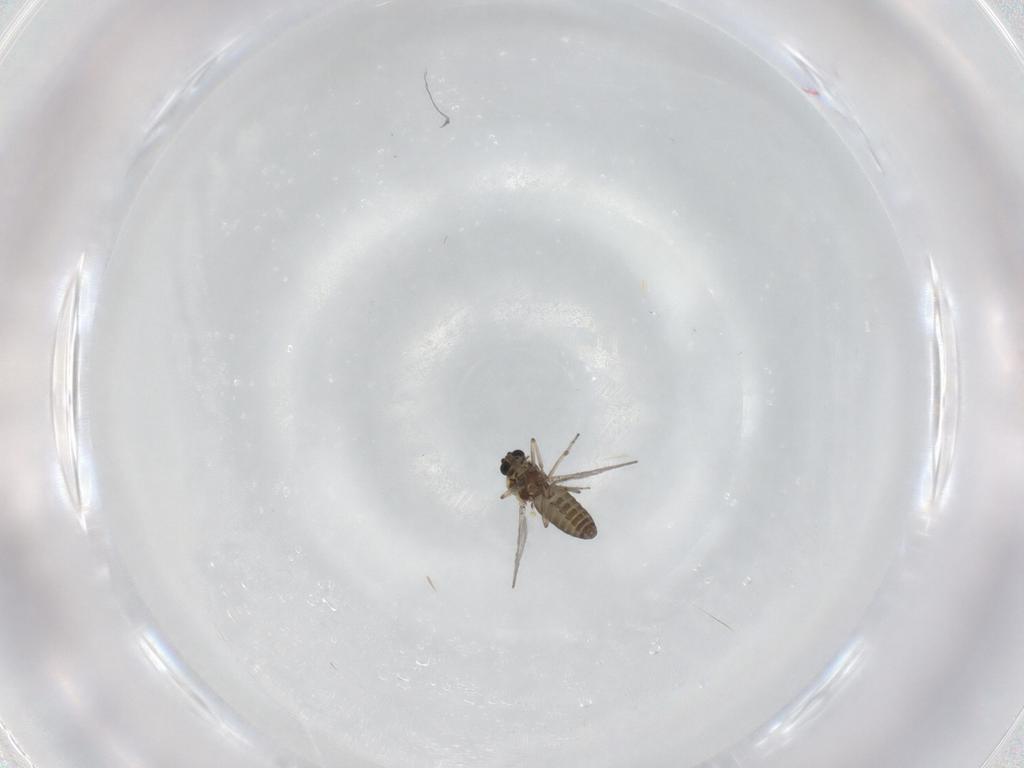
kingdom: Animalia
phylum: Arthropoda
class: Insecta
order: Diptera
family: Ceratopogonidae
